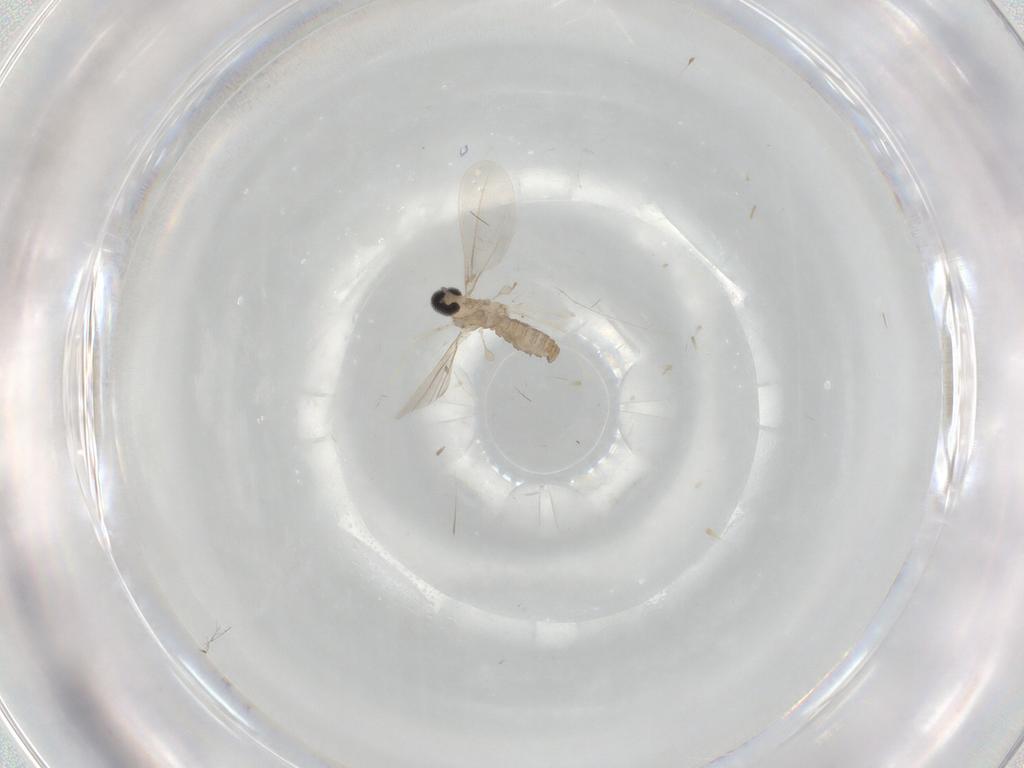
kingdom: Animalia
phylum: Arthropoda
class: Insecta
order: Diptera
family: Cecidomyiidae
